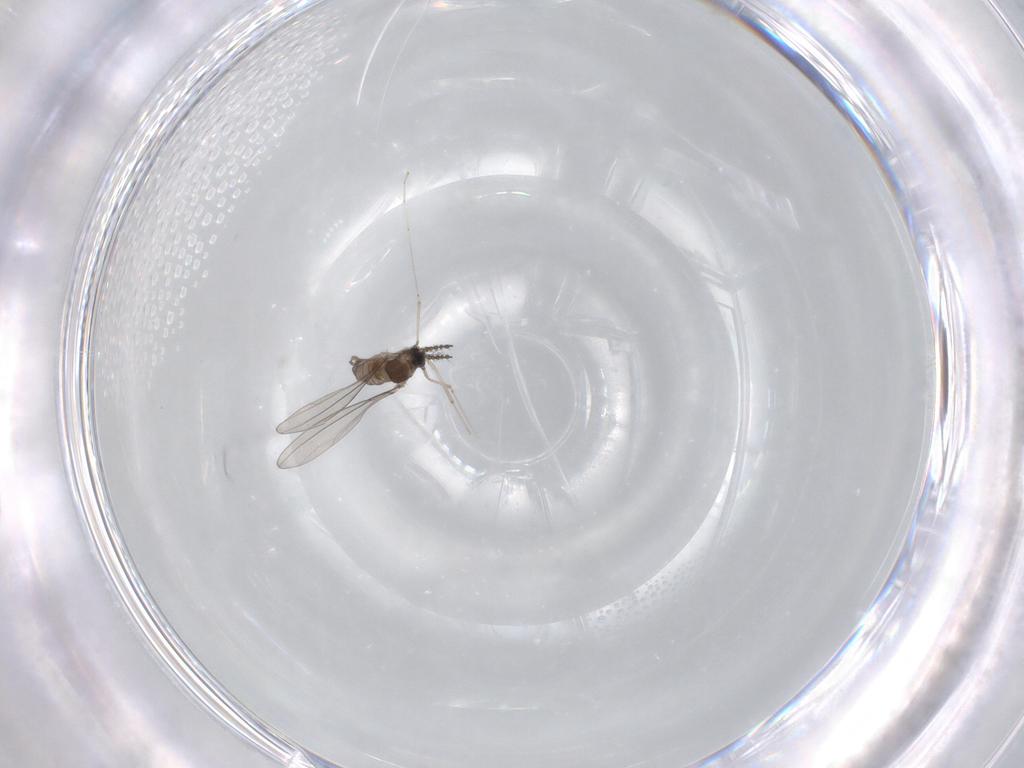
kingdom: Animalia
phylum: Arthropoda
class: Insecta
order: Diptera
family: Cecidomyiidae
